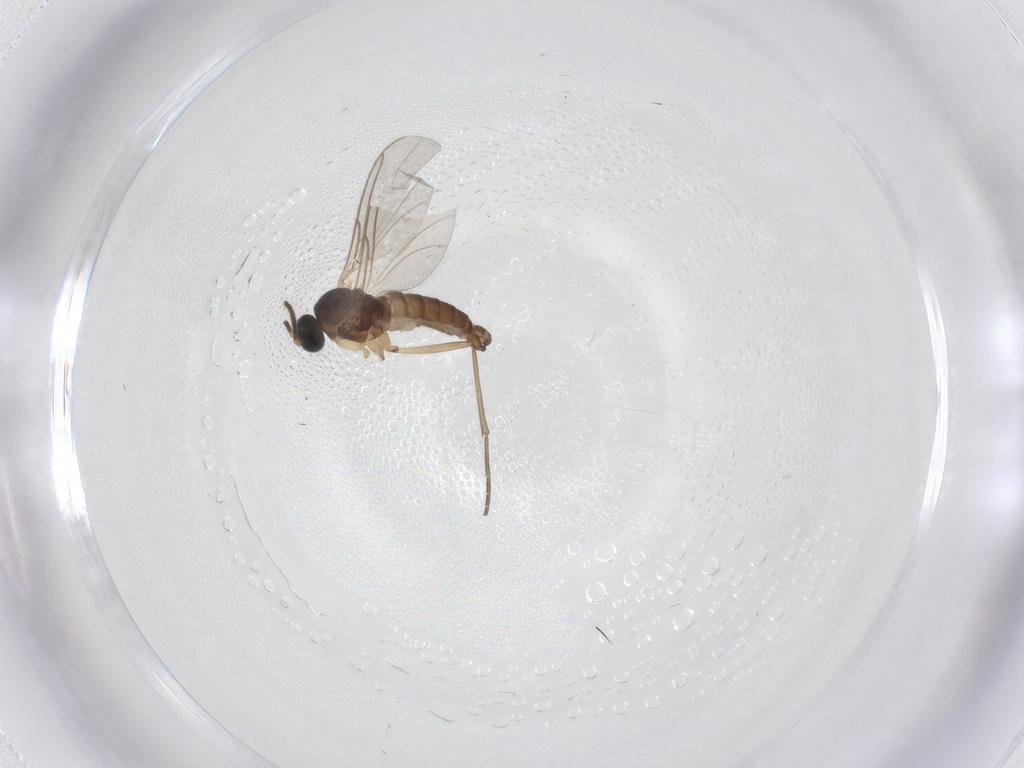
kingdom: Animalia
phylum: Arthropoda
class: Insecta
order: Diptera
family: Sciaridae
